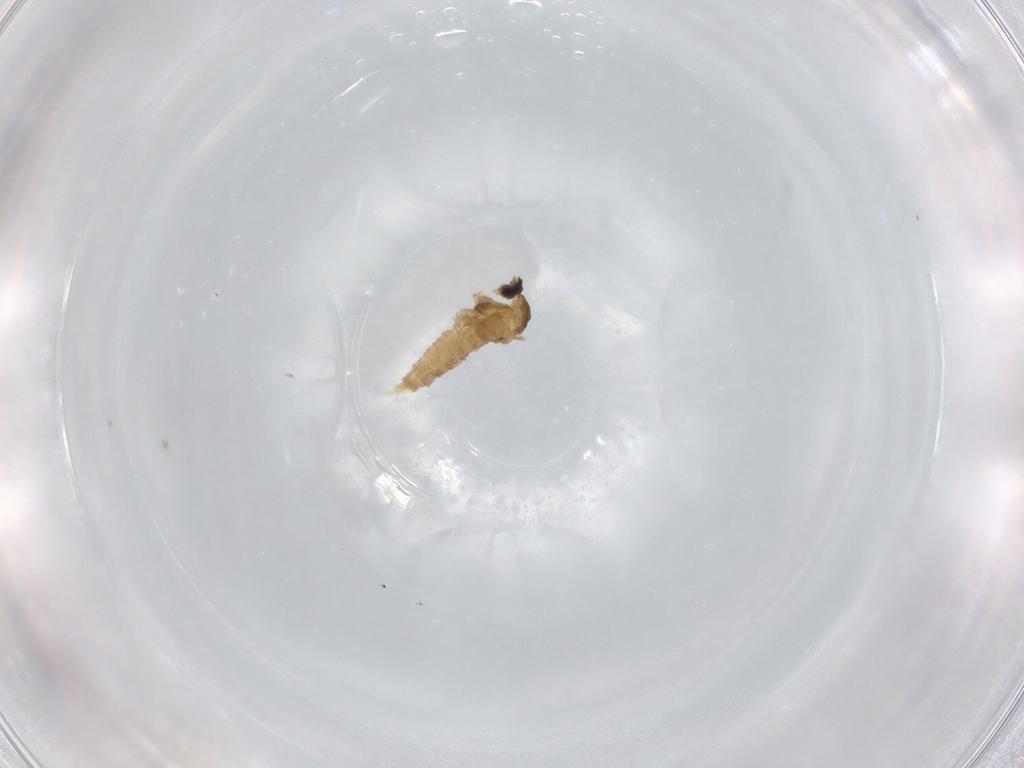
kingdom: Animalia
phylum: Arthropoda
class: Insecta
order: Diptera
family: Cecidomyiidae
